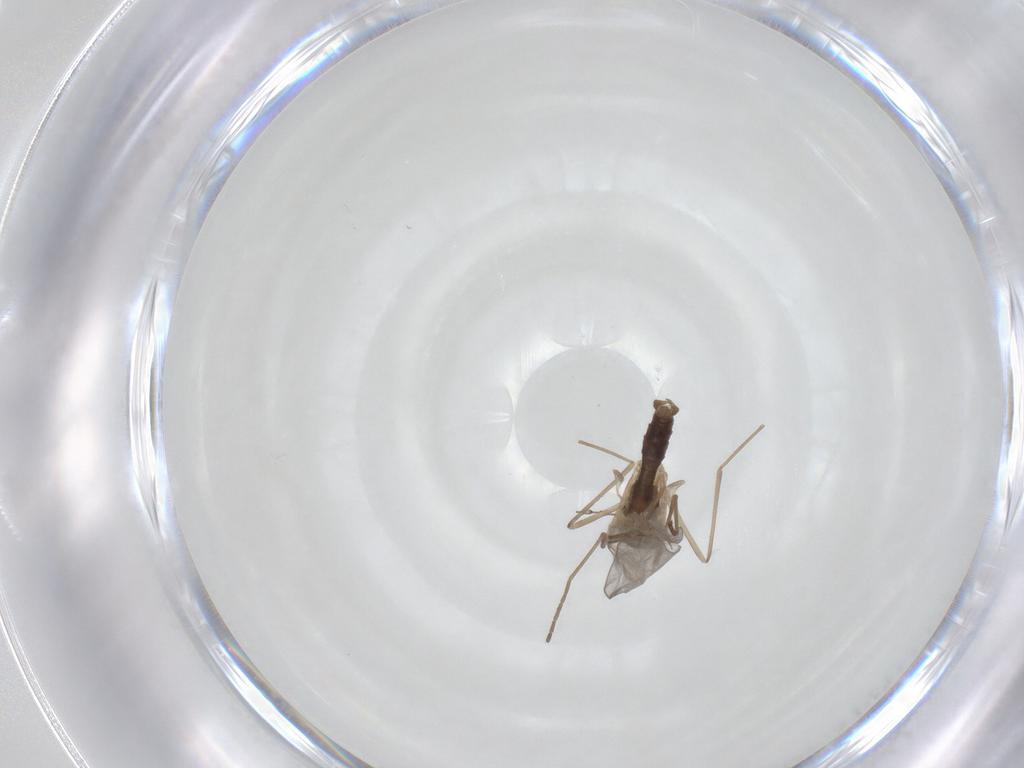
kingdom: Animalia
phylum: Arthropoda
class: Insecta
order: Diptera
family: Cecidomyiidae
